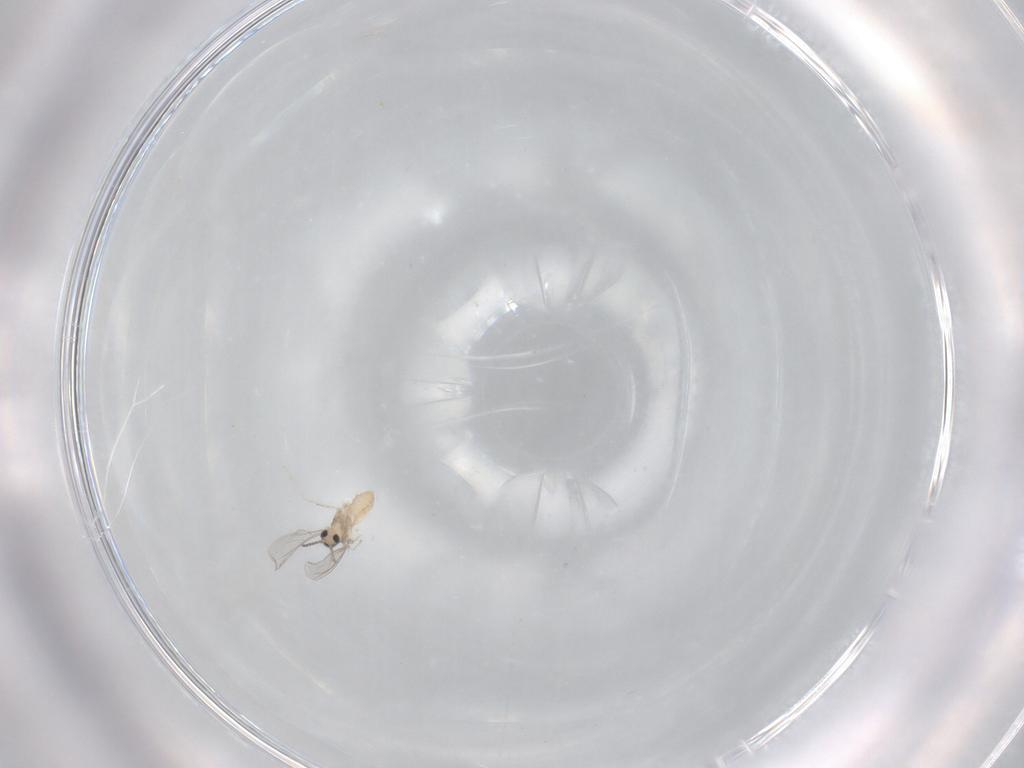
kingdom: Animalia
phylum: Arthropoda
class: Insecta
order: Diptera
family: Cecidomyiidae
